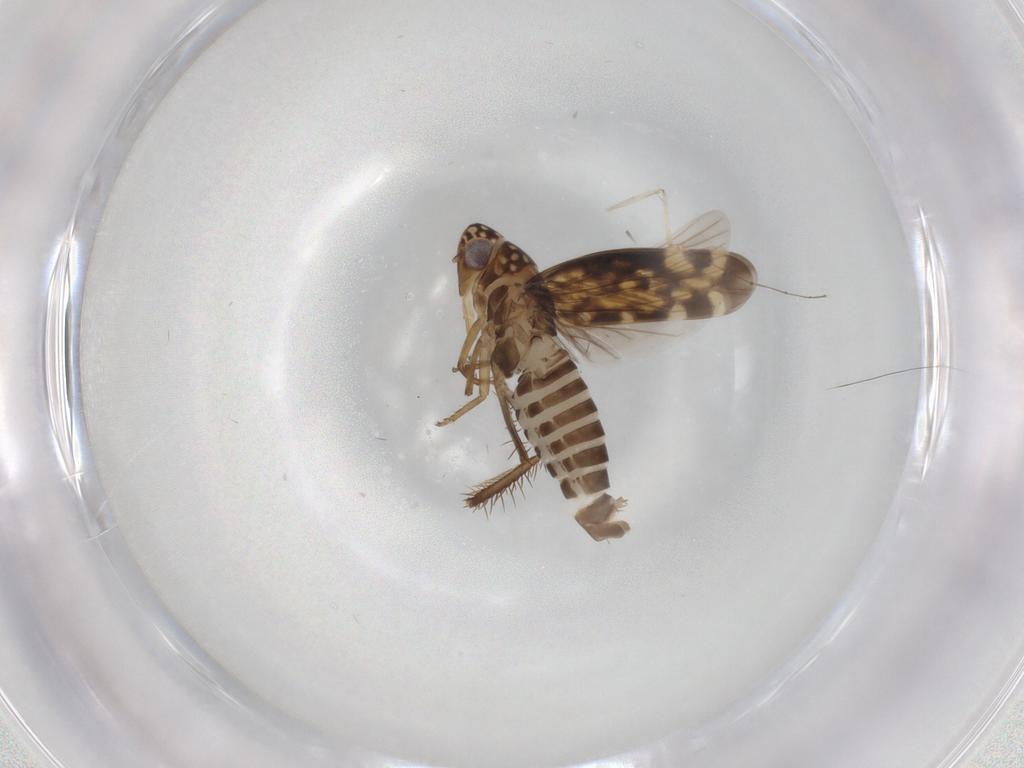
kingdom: Animalia
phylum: Arthropoda
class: Insecta
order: Hemiptera
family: Cicadellidae
